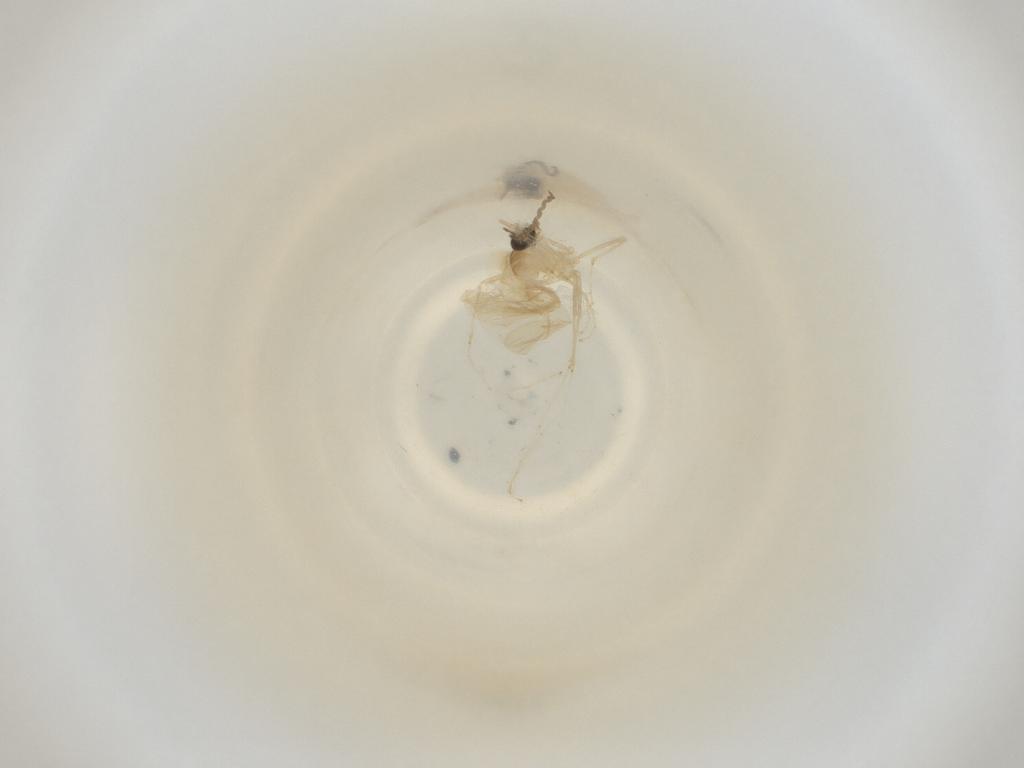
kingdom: Animalia
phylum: Arthropoda
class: Insecta
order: Diptera
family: Cecidomyiidae
